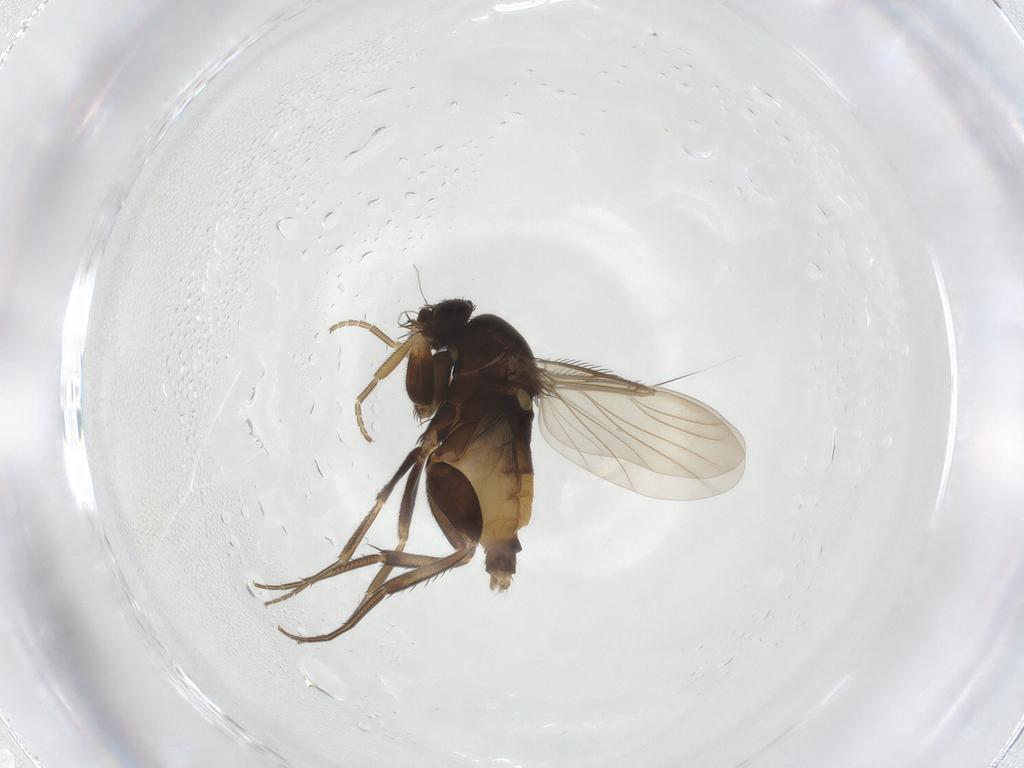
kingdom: Animalia
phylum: Arthropoda
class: Insecta
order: Diptera
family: Phoridae
